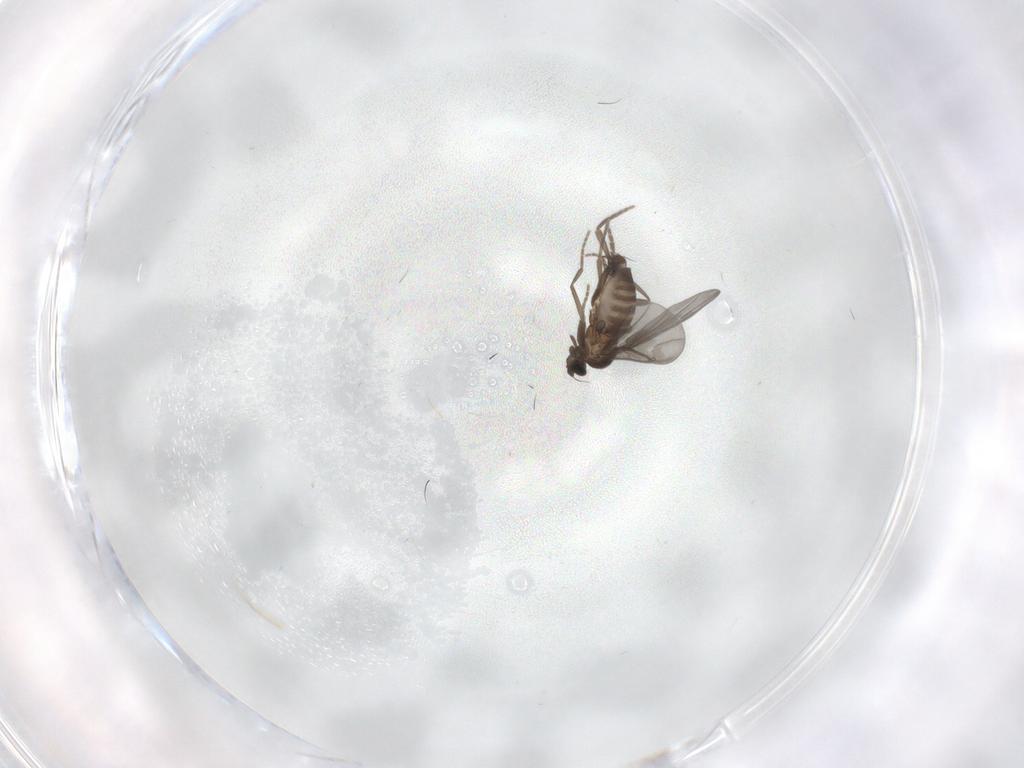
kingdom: Animalia
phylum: Arthropoda
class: Insecta
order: Diptera
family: Phoridae
